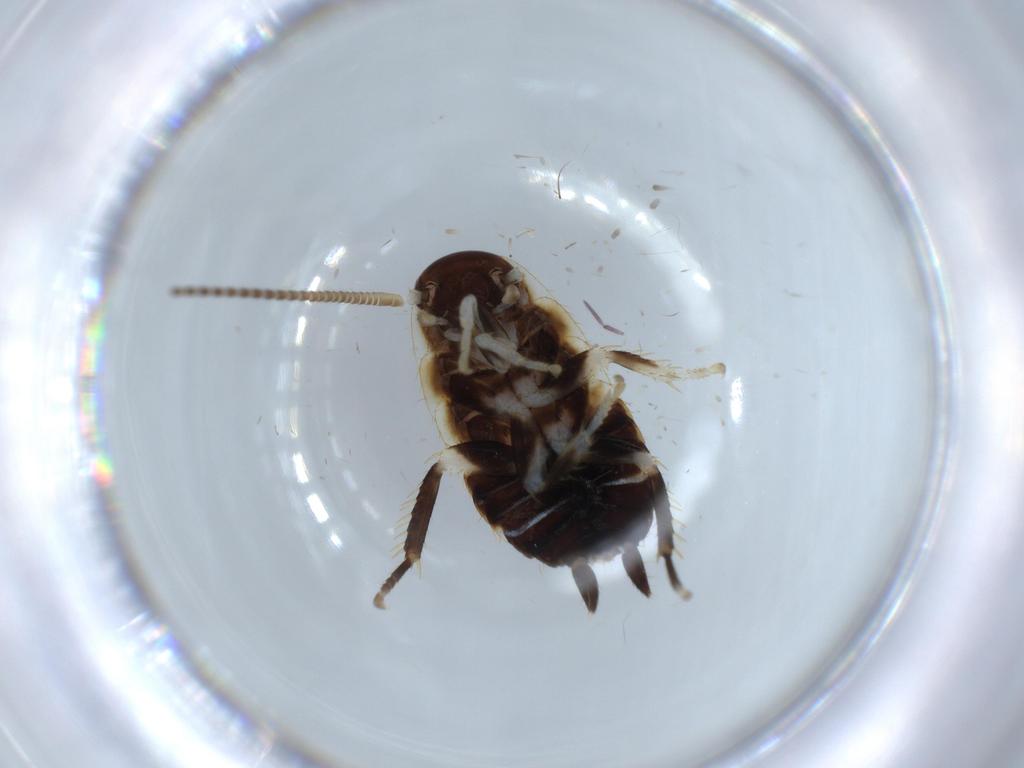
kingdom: Animalia
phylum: Arthropoda
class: Insecta
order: Blattodea
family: Ectobiidae
